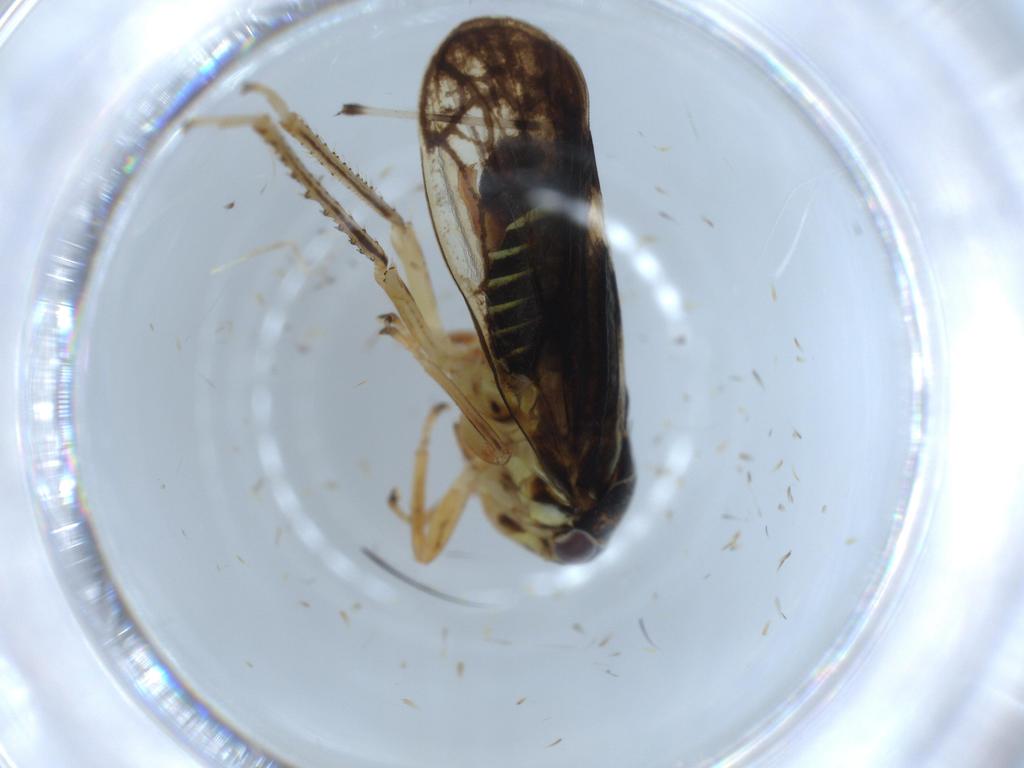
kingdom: Animalia
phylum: Arthropoda
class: Insecta
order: Hemiptera
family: Cicadellidae
